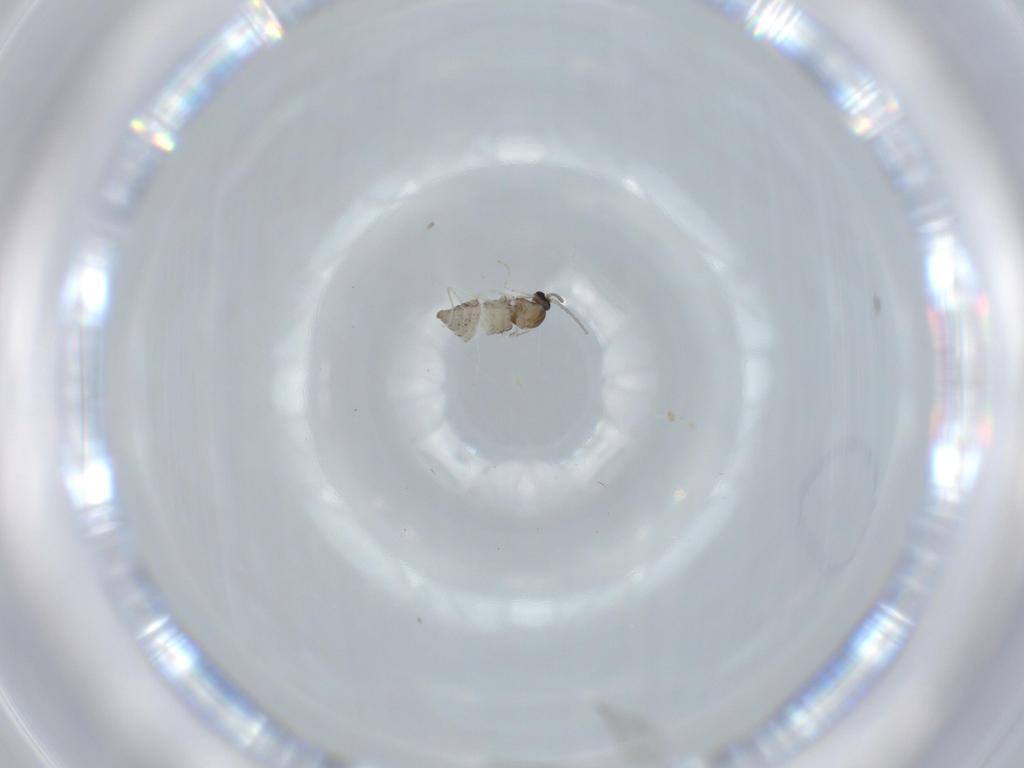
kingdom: Animalia
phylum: Arthropoda
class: Insecta
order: Diptera
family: Cecidomyiidae
